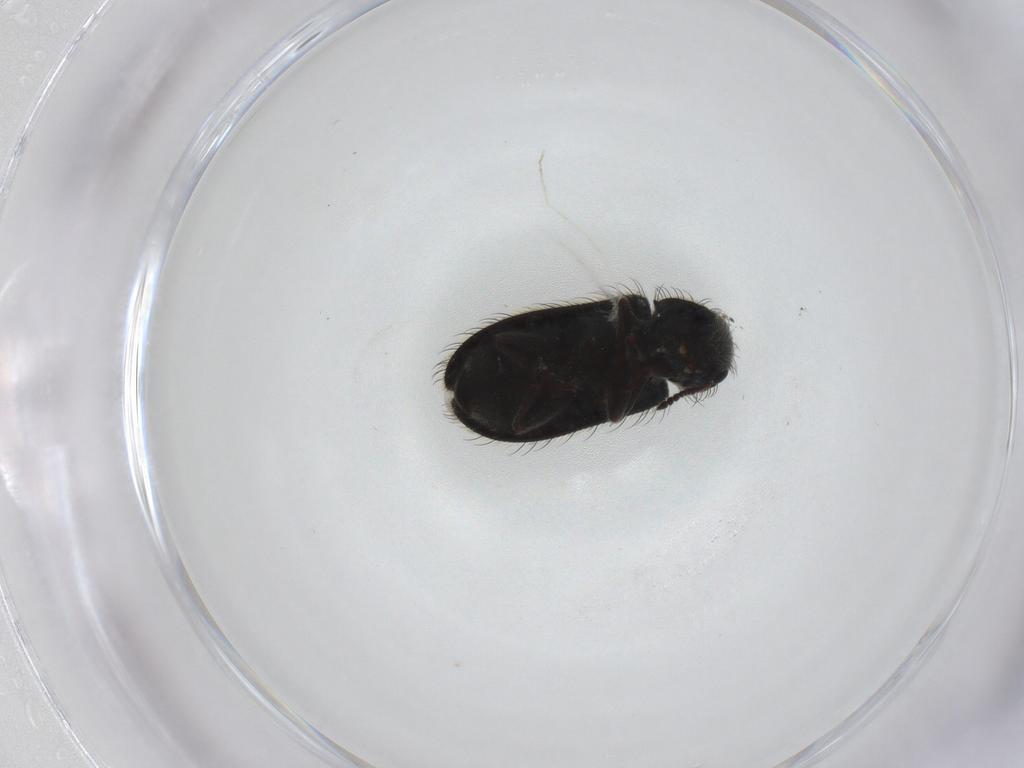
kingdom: Animalia
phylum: Arthropoda
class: Insecta
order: Coleoptera
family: Melyridae
